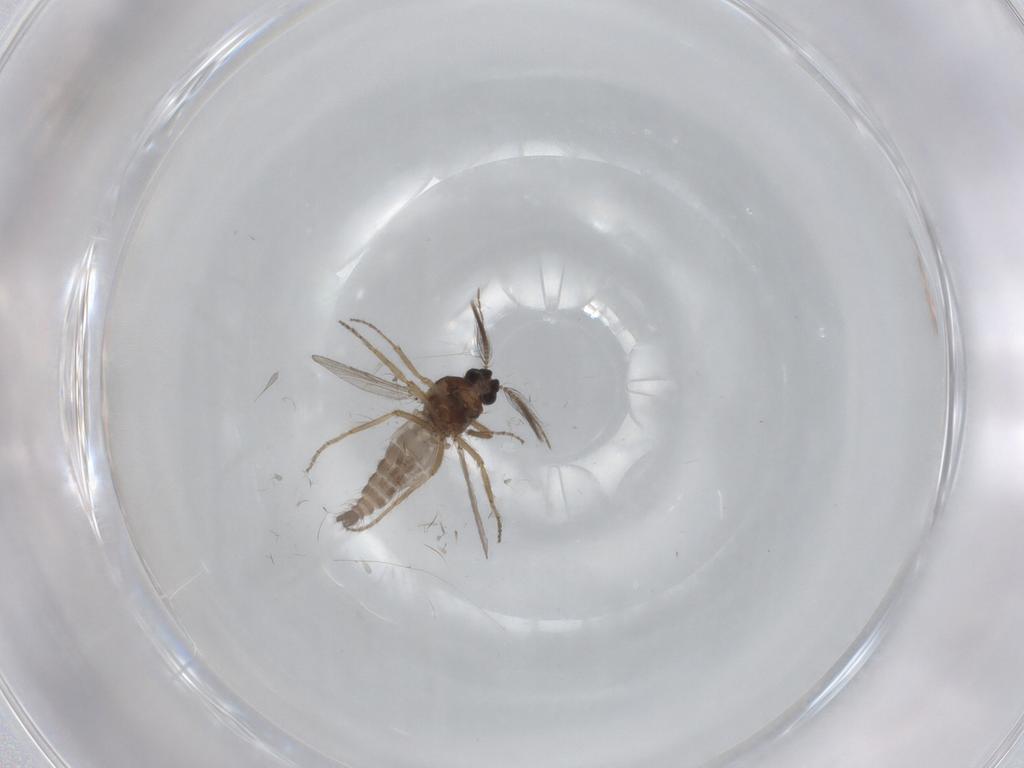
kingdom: Animalia
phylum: Arthropoda
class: Insecta
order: Diptera
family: Ceratopogonidae
